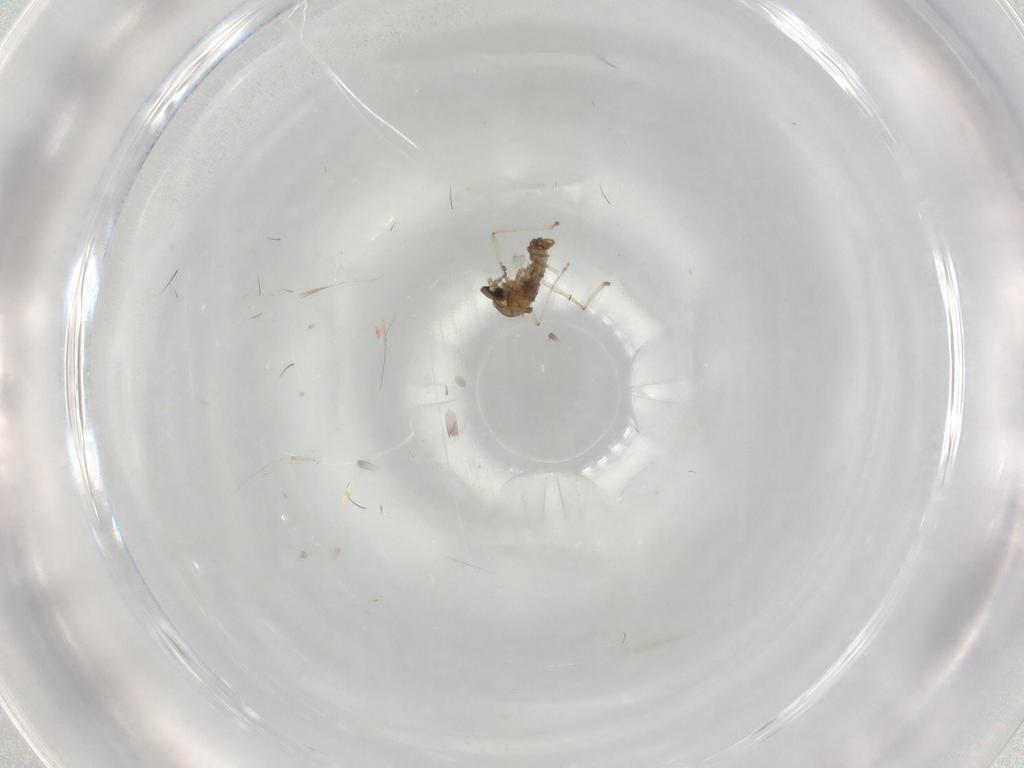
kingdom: Animalia
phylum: Arthropoda
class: Insecta
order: Diptera
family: Cecidomyiidae
